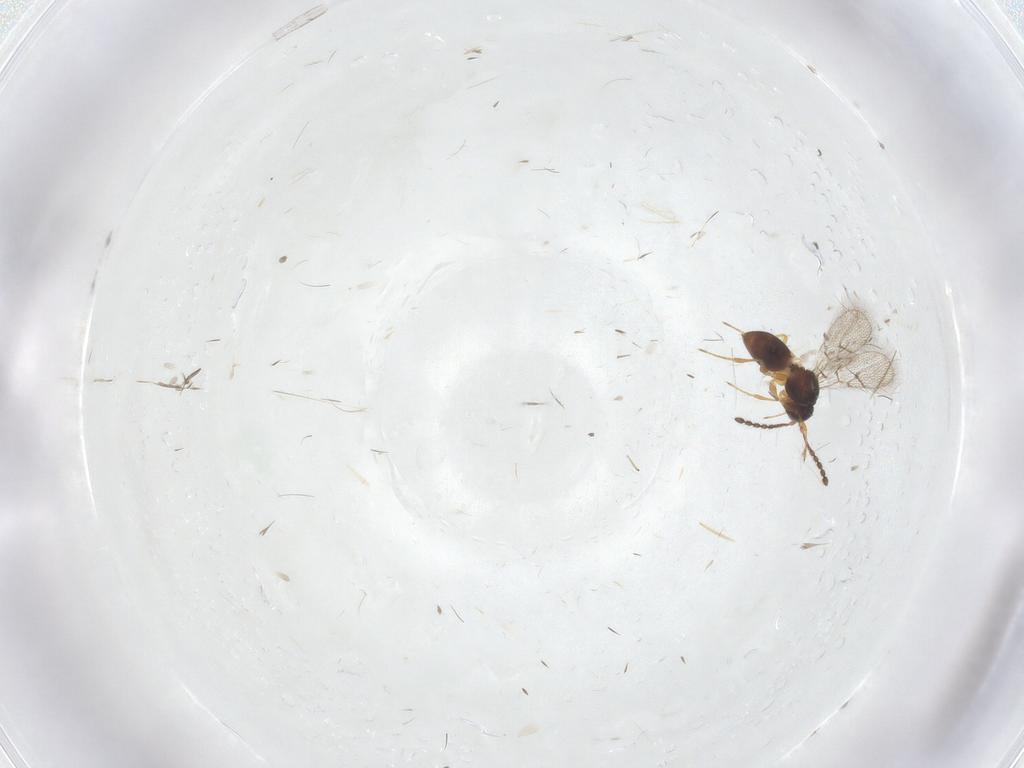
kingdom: Animalia
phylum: Arthropoda
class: Insecta
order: Hymenoptera
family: Figitidae
